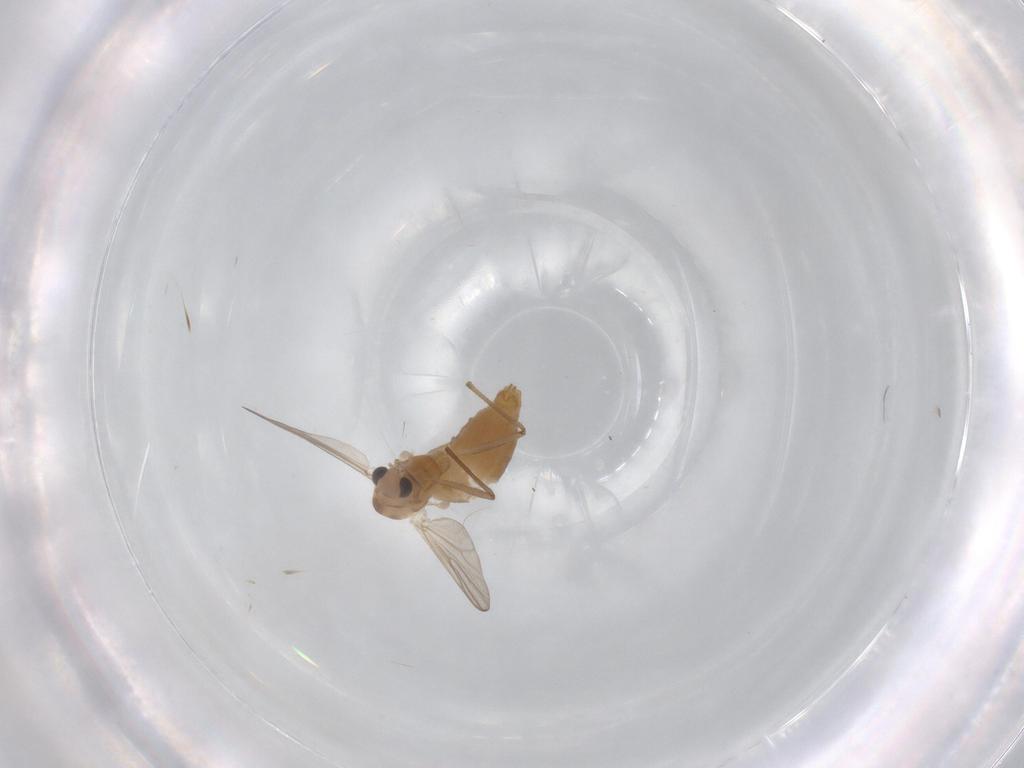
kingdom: Animalia
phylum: Arthropoda
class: Insecta
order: Diptera
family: Chironomidae
